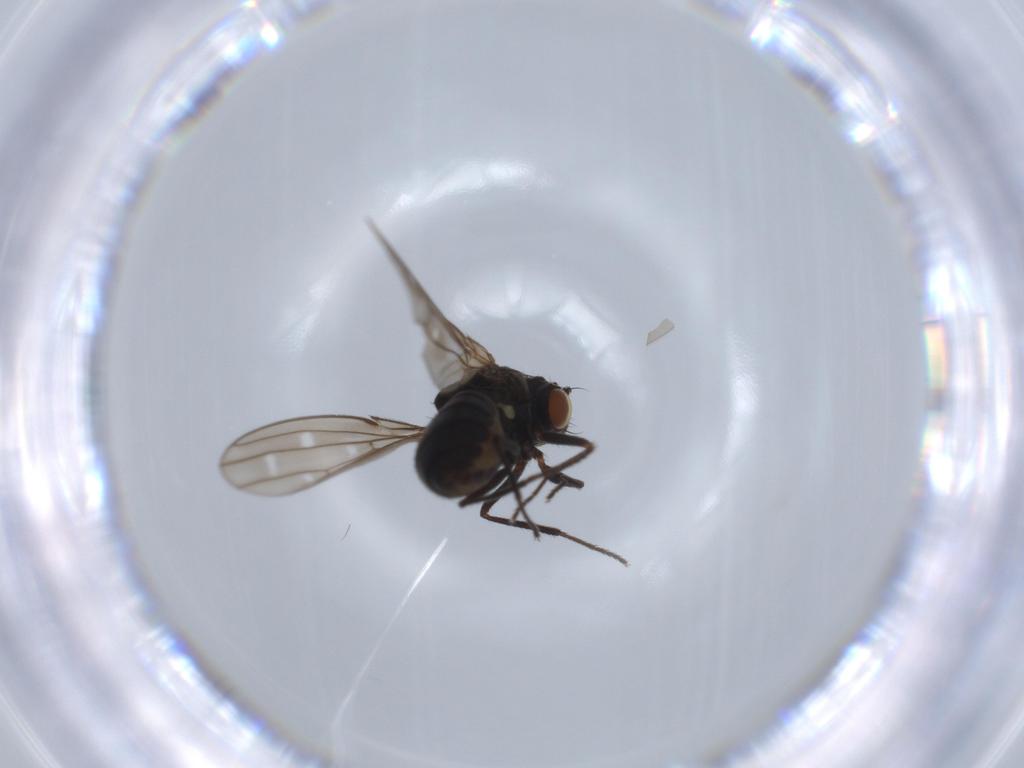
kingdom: Animalia
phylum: Arthropoda
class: Insecta
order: Diptera
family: Ephydridae
